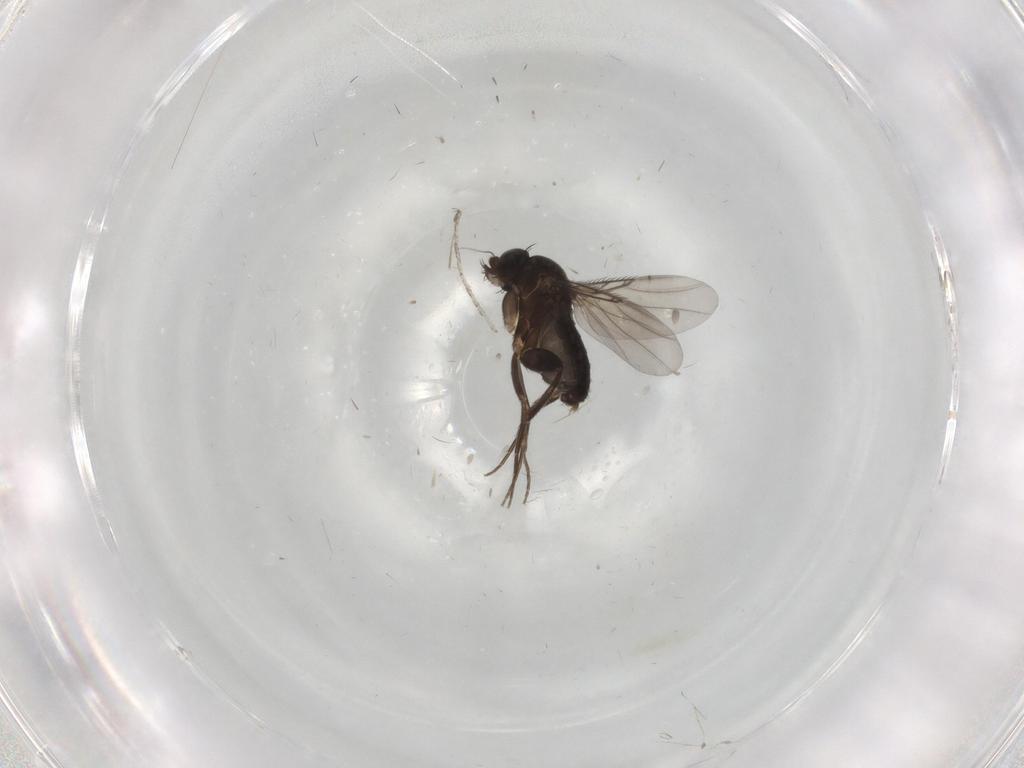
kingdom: Animalia
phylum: Arthropoda
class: Insecta
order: Diptera
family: Phoridae
